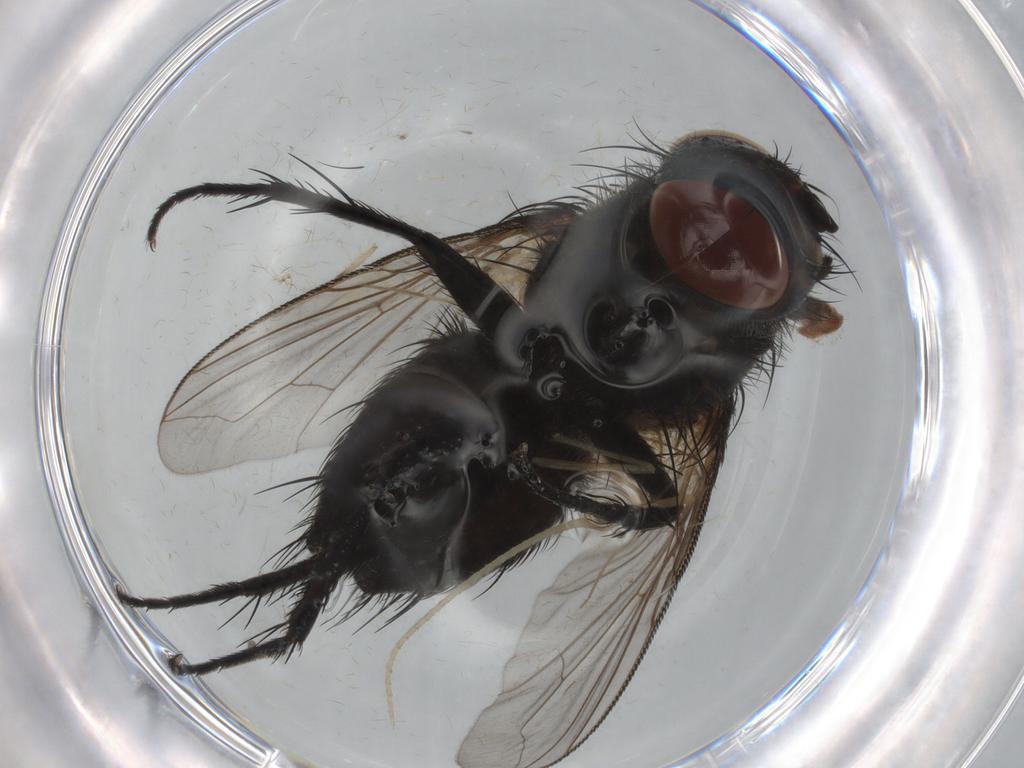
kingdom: Animalia
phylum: Arthropoda
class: Insecta
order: Diptera
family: Tachinidae
